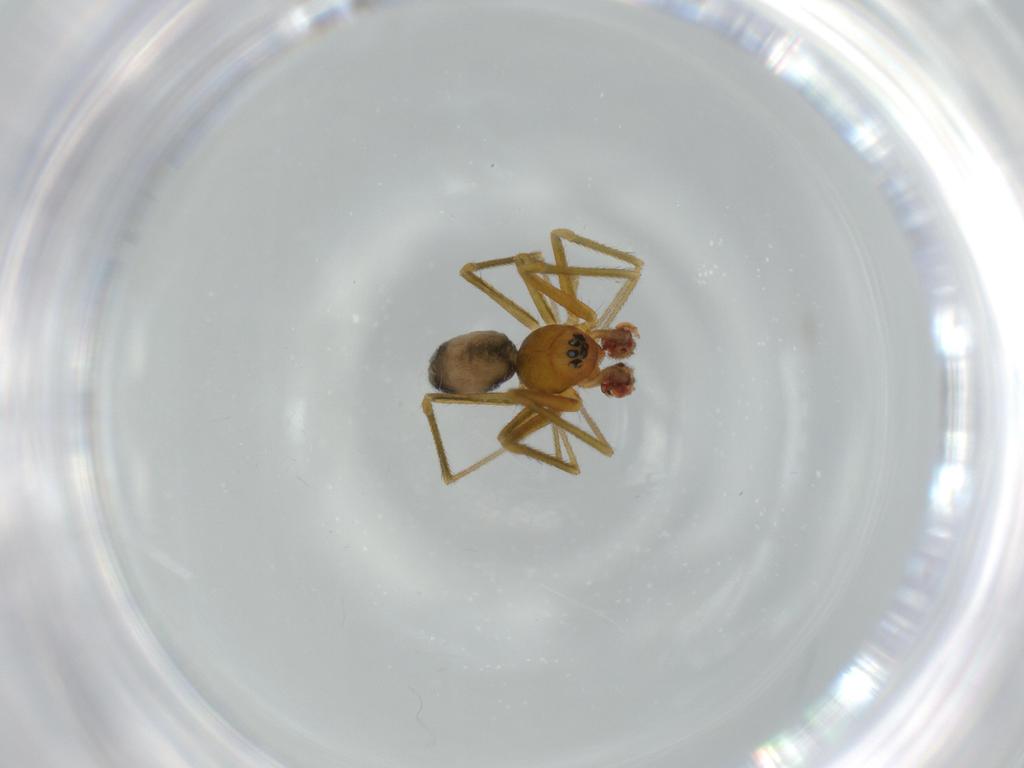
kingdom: Animalia
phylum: Arthropoda
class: Arachnida
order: Araneae
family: Linyphiidae
